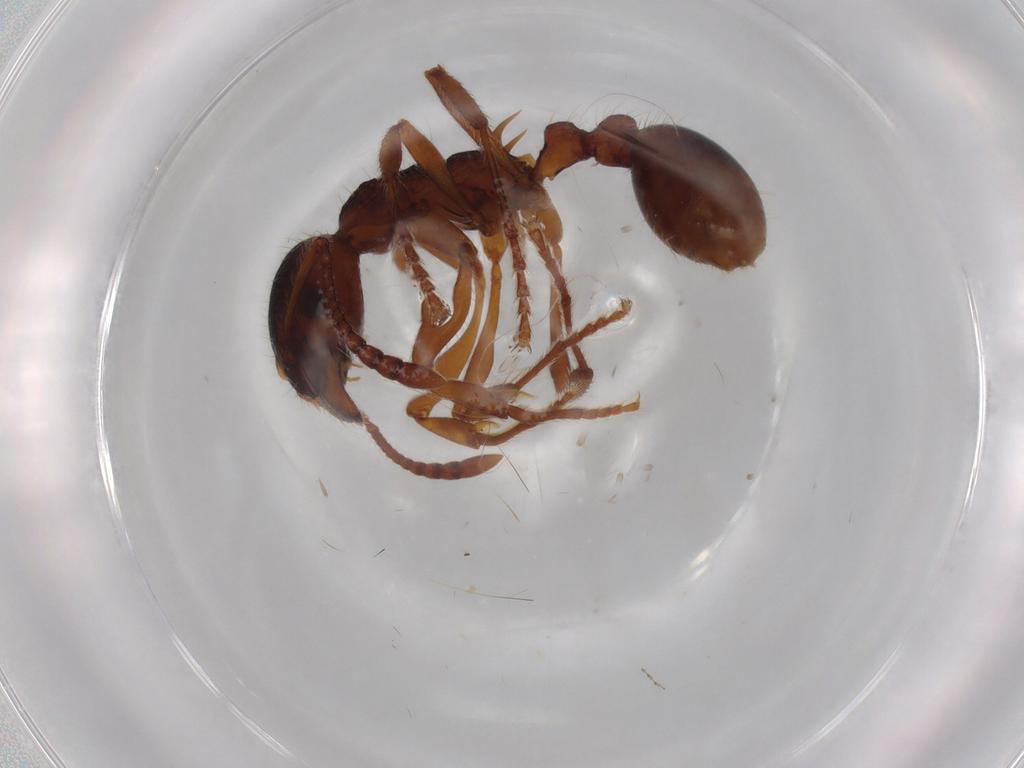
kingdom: Animalia
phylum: Arthropoda
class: Insecta
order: Hymenoptera
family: Formicidae
